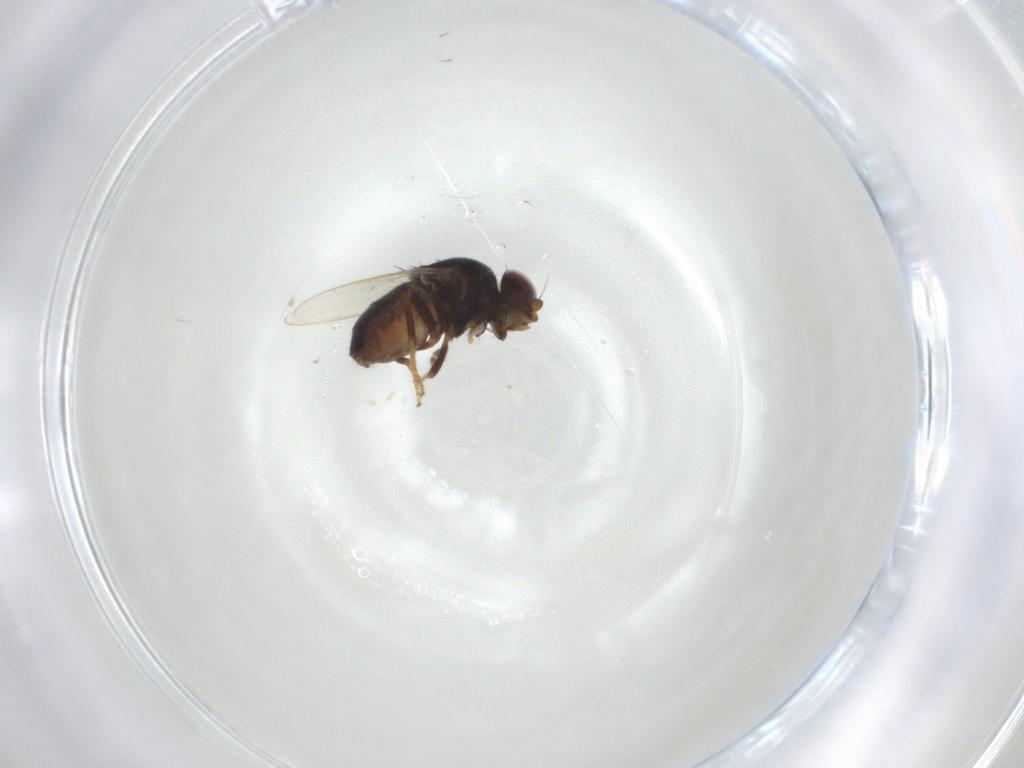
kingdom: Animalia
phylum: Arthropoda
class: Insecta
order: Diptera
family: Chloropidae
